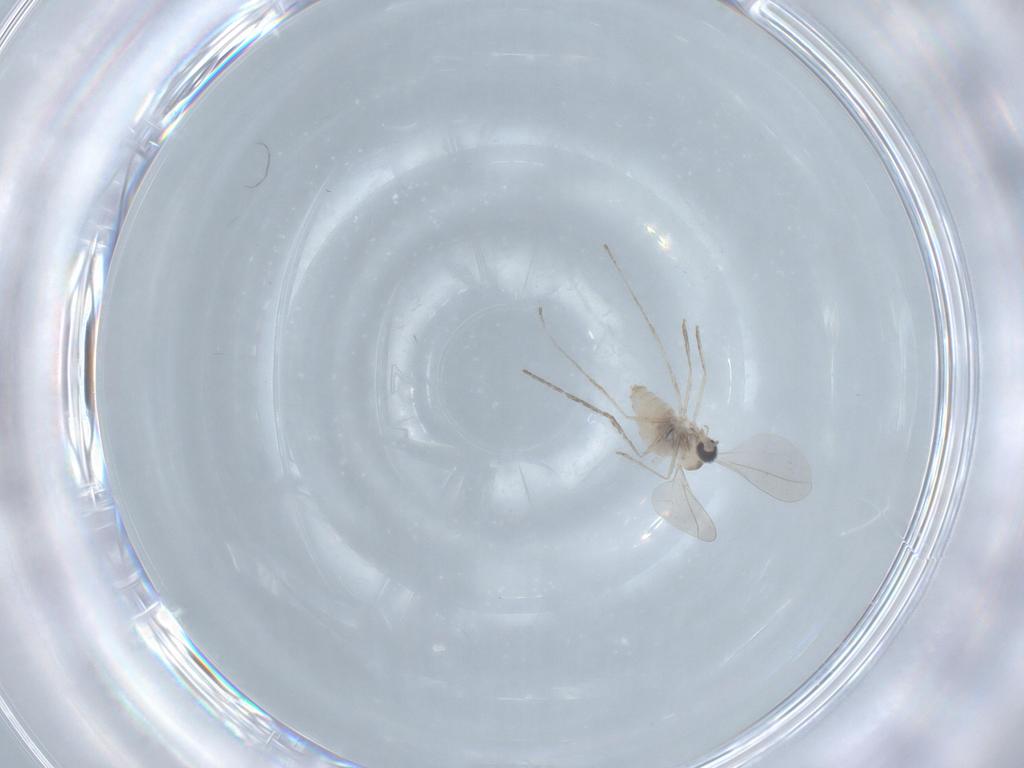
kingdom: Animalia
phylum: Arthropoda
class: Insecta
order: Diptera
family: Cecidomyiidae
